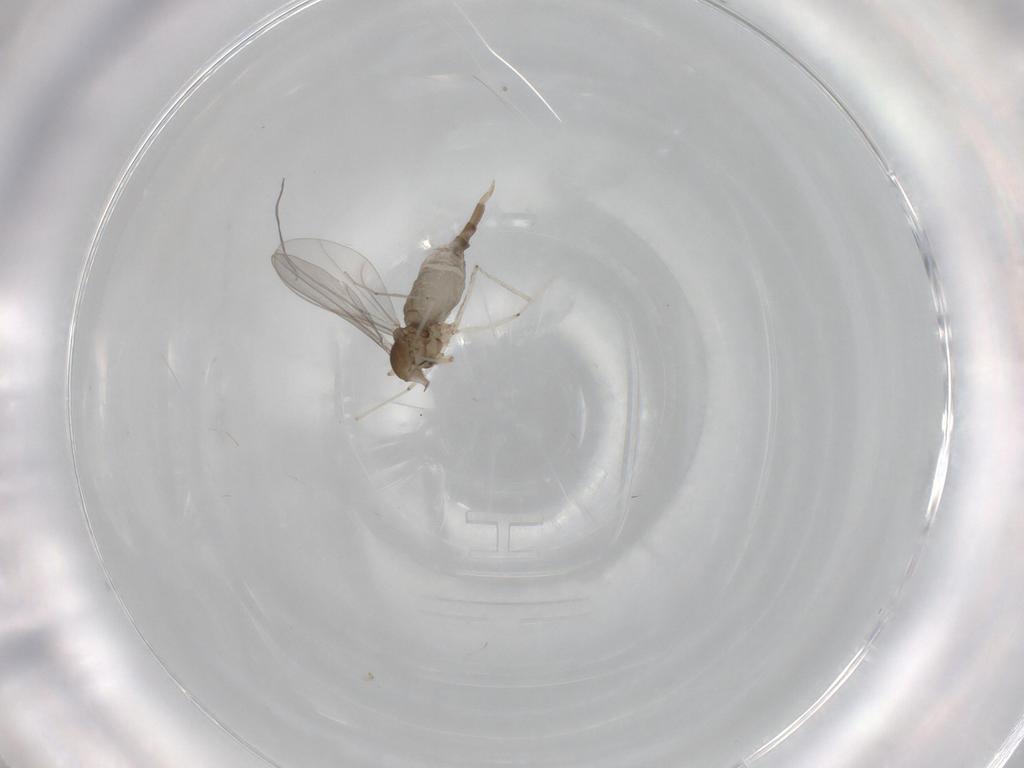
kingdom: Animalia
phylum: Arthropoda
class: Insecta
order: Diptera
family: Cecidomyiidae
